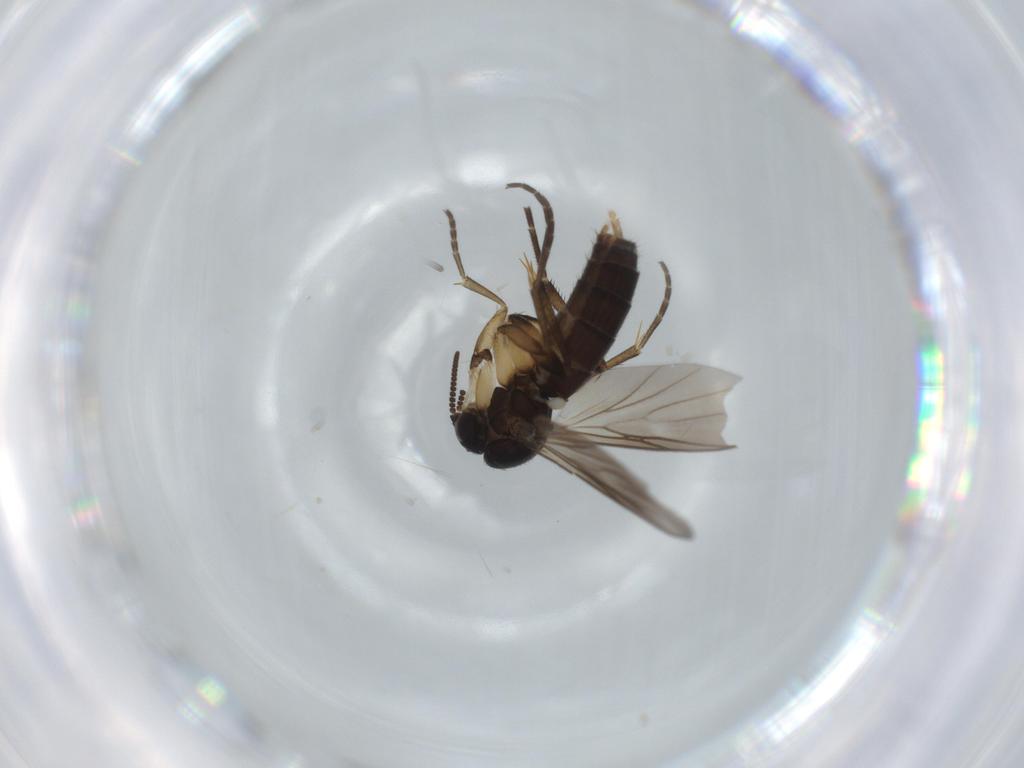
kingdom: Animalia
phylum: Arthropoda
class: Insecta
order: Diptera
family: Mycetophilidae
